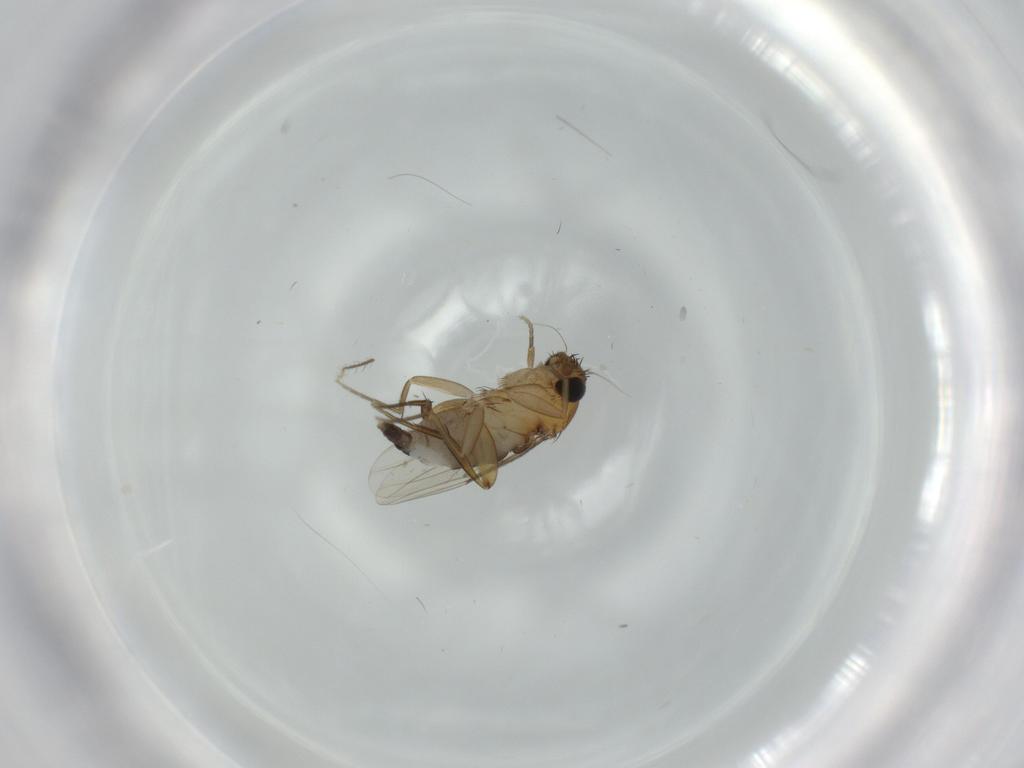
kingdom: Animalia
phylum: Arthropoda
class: Insecta
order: Diptera
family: Phoridae
